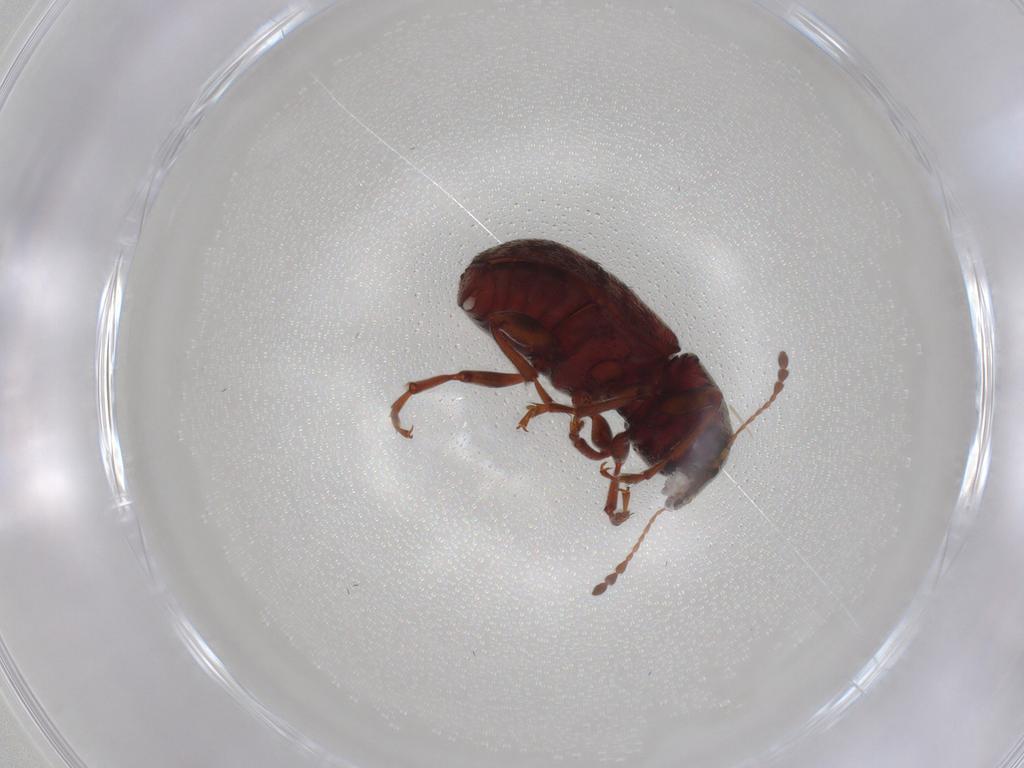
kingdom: Animalia
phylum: Arthropoda
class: Insecta
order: Coleoptera
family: Anthribidae
